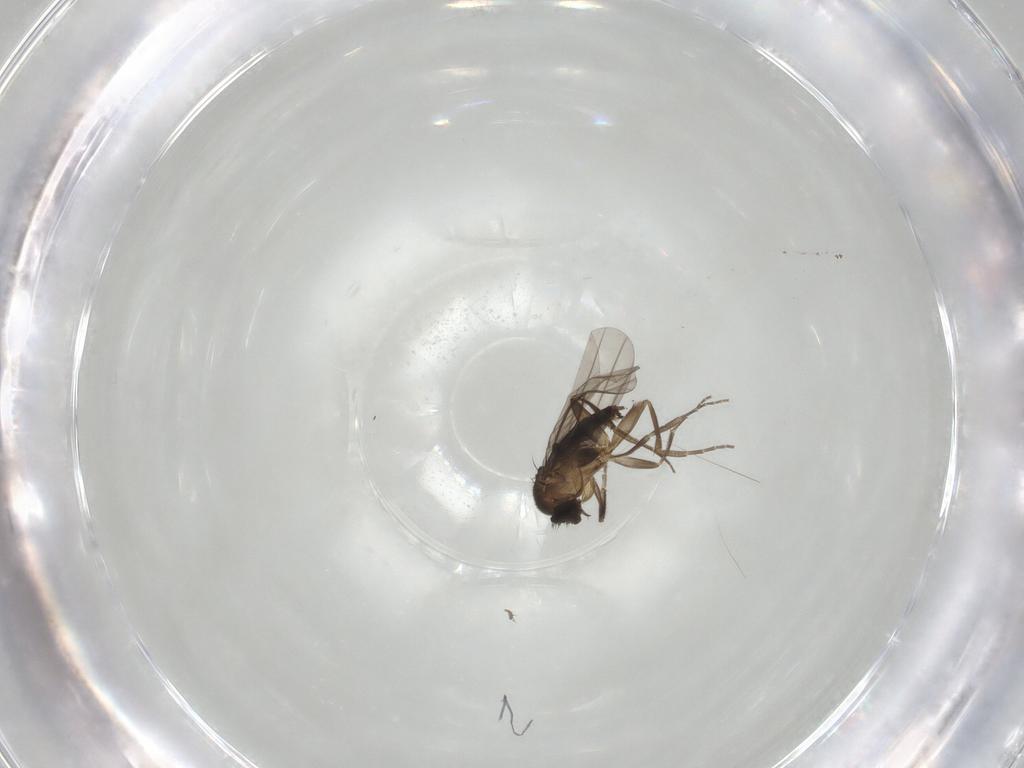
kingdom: Animalia
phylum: Arthropoda
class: Insecta
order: Diptera
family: Phoridae
